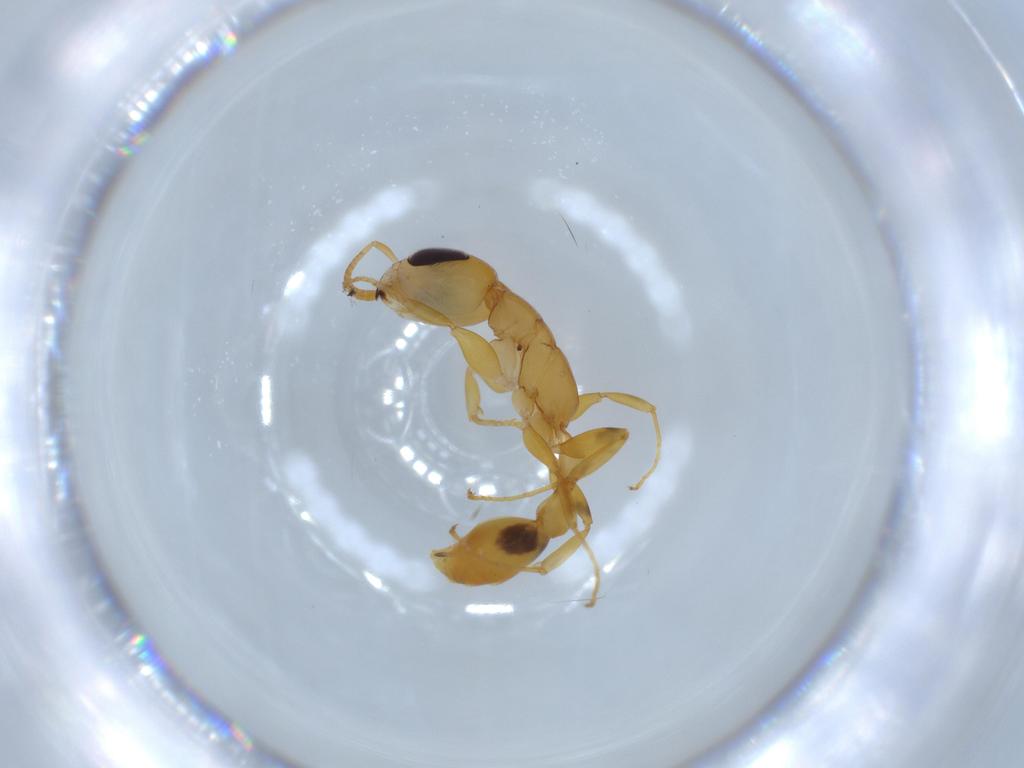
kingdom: Animalia
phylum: Arthropoda
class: Insecta
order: Hymenoptera
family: Formicidae
